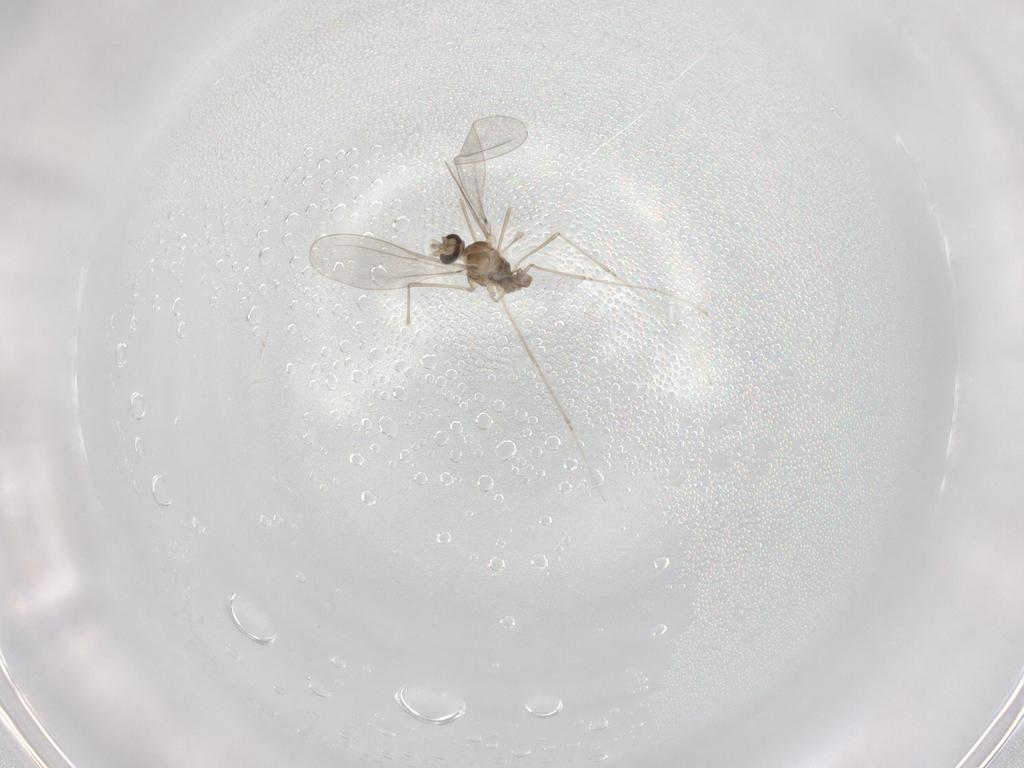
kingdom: Animalia
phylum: Arthropoda
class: Insecta
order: Diptera
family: Cecidomyiidae
